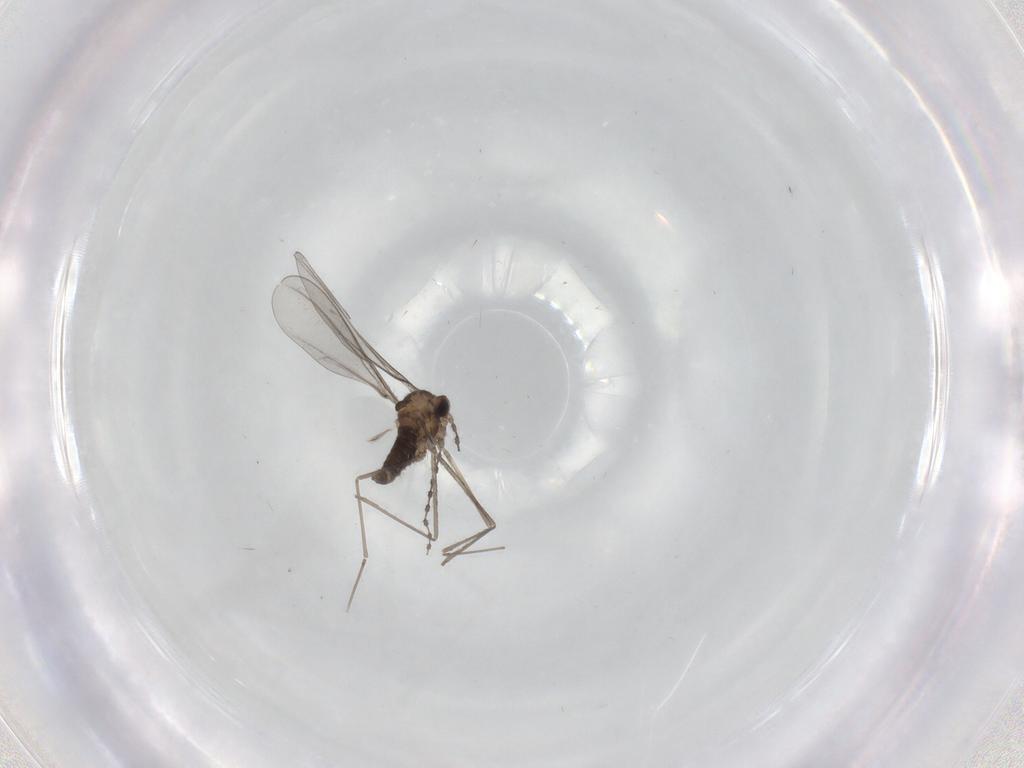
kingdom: Animalia
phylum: Arthropoda
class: Insecta
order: Diptera
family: Cecidomyiidae
